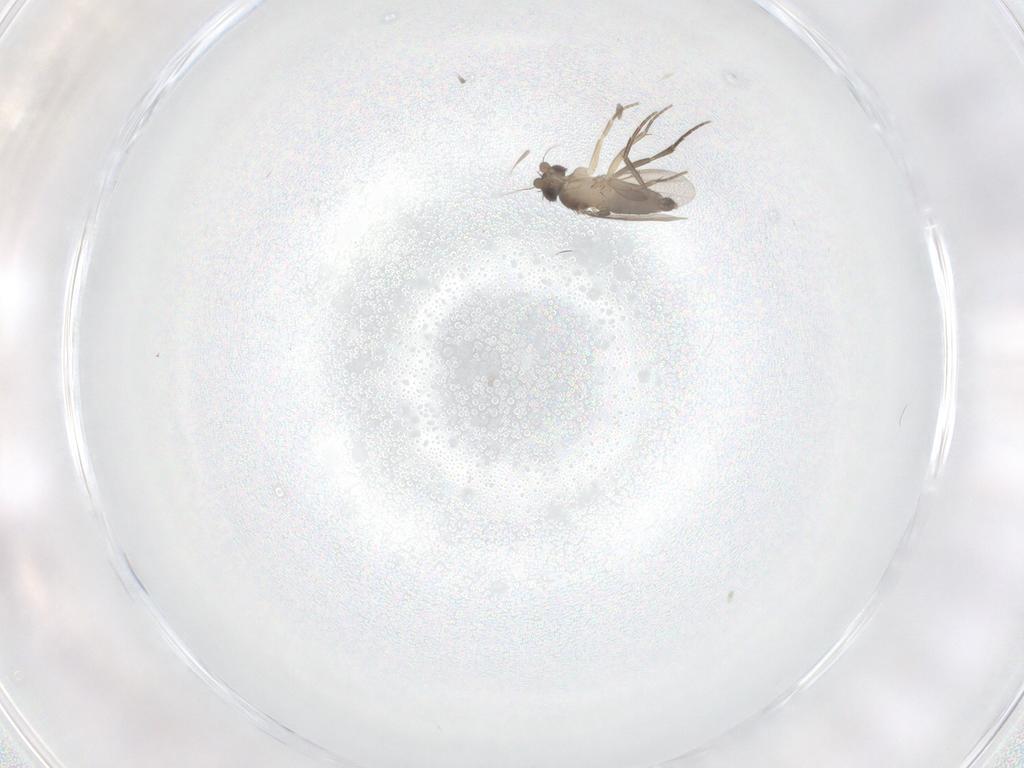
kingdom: Animalia
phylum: Arthropoda
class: Insecta
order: Diptera
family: Phoridae
